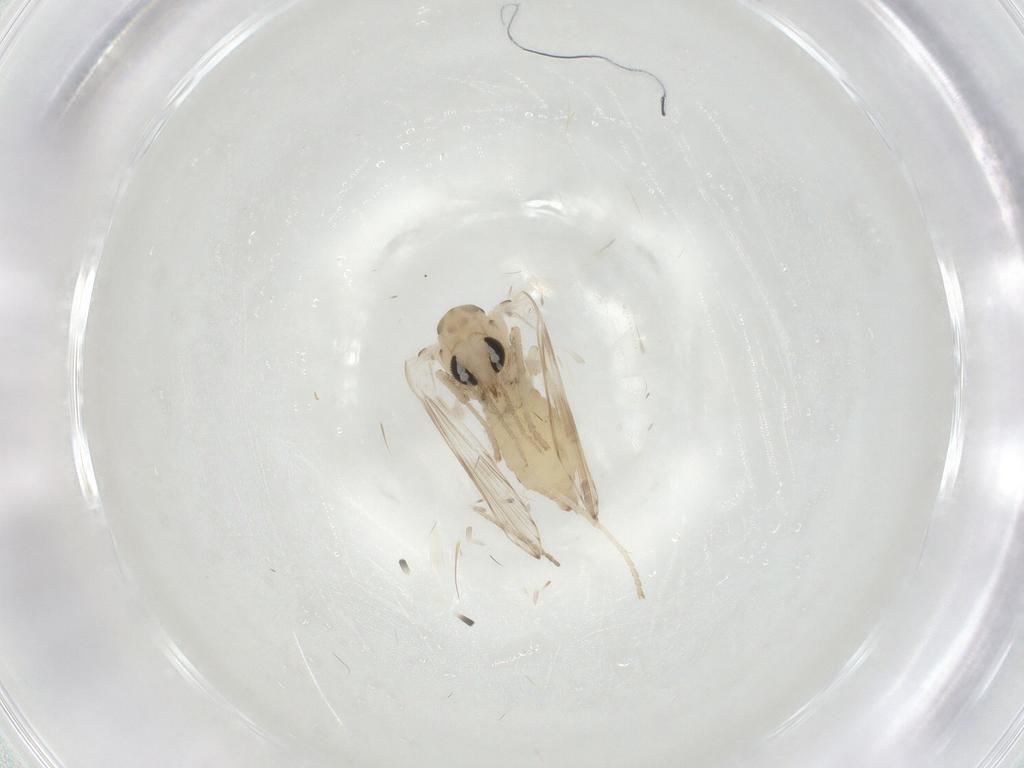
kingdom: Animalia
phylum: Arthropoda
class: Insecta
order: Diptera
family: Psychodidae
